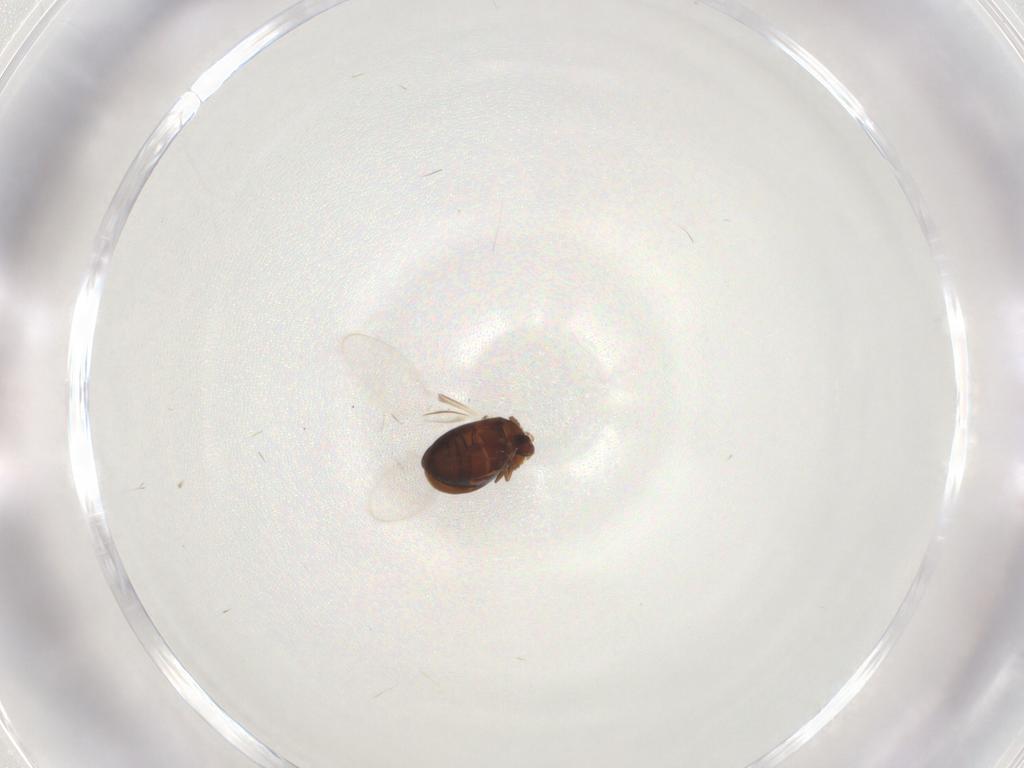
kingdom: Animalia
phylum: Arthropoda
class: Insecta
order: Coleoptera
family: Corylophidae
